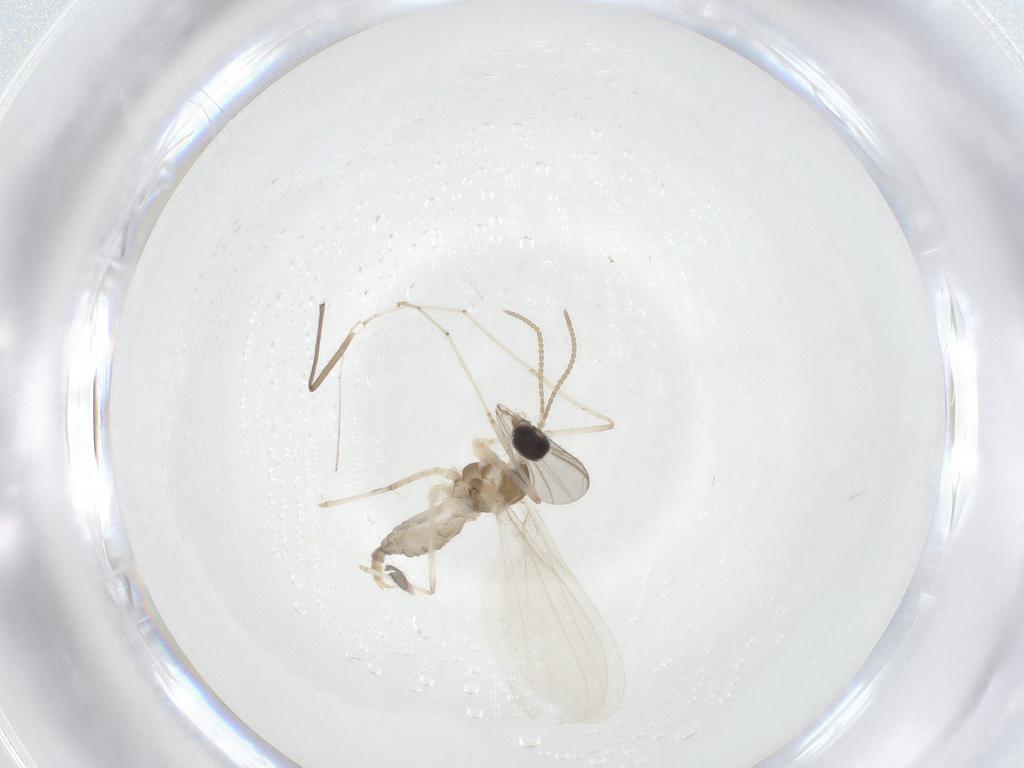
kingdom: Animalia
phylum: Arthropoda
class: Insecta
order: Diptera
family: Cecidomyiidae
